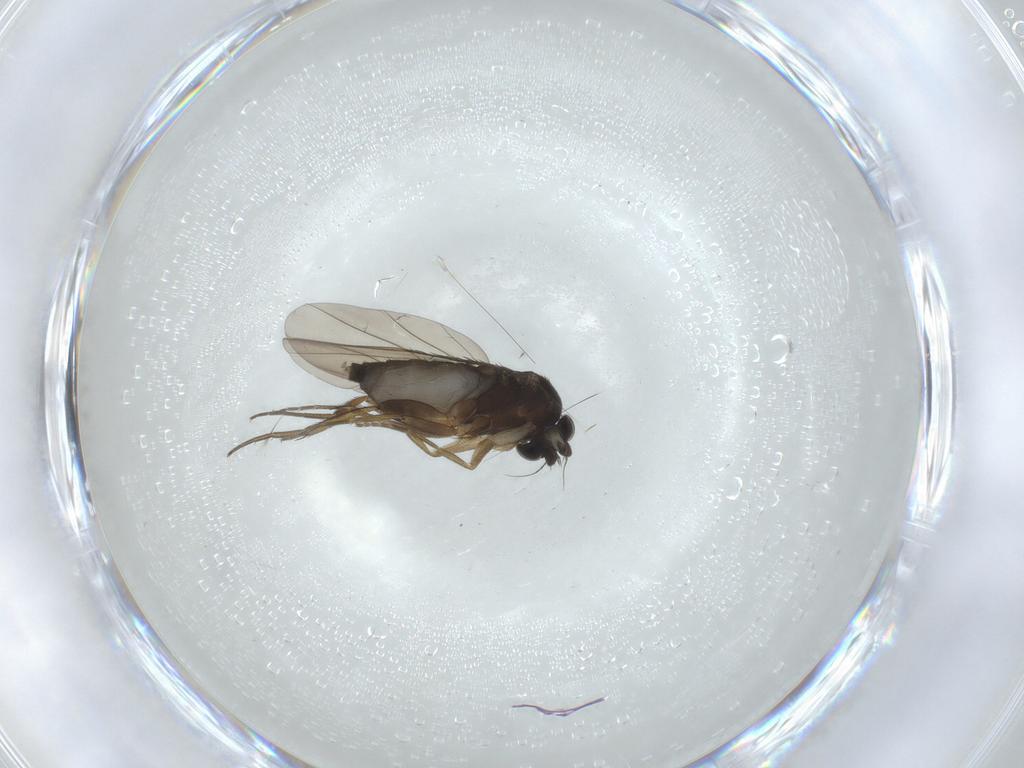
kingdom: Animalia
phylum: Arthropoda
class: Insecta
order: Diptera
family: Phoridae
